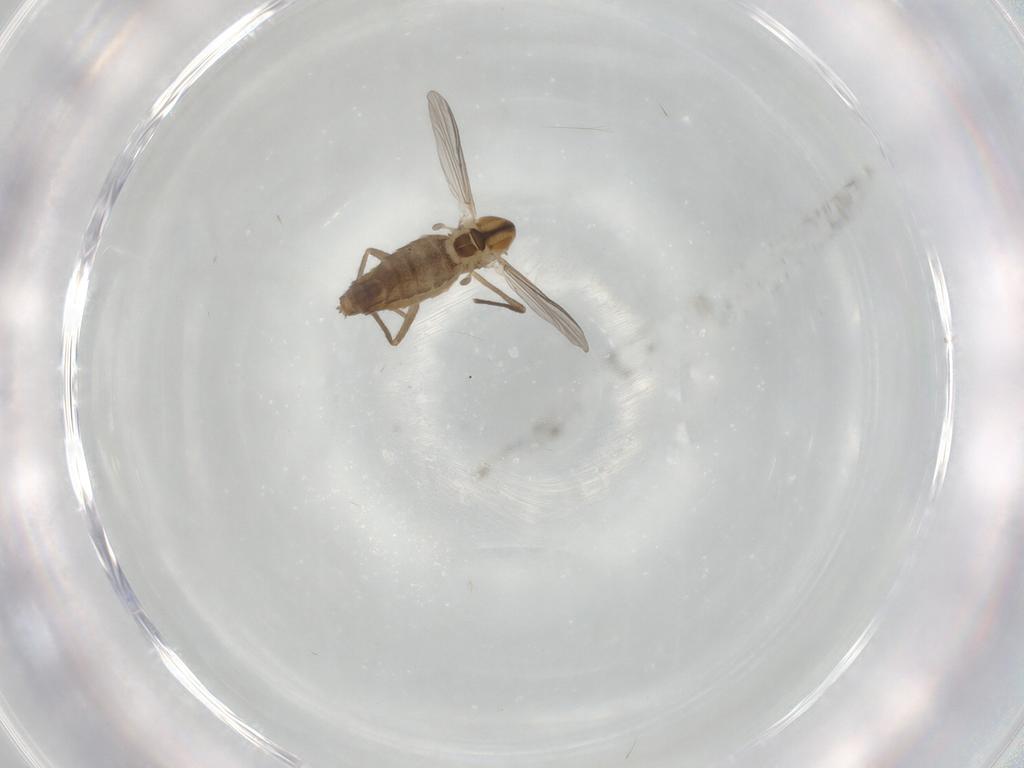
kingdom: Animalia
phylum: Arthropoda
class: Insecta
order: Diptera
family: Chironomidae
